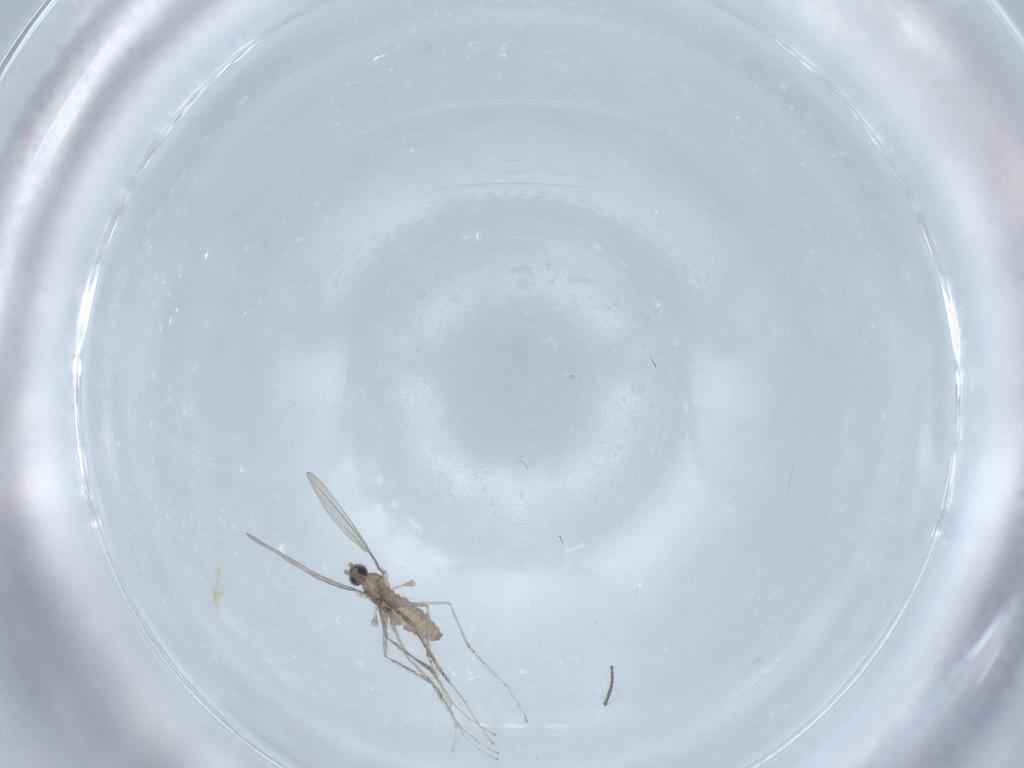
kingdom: Animalia
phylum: Arthropoda
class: Insecta
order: Diptera
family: Cecidomyiidae
